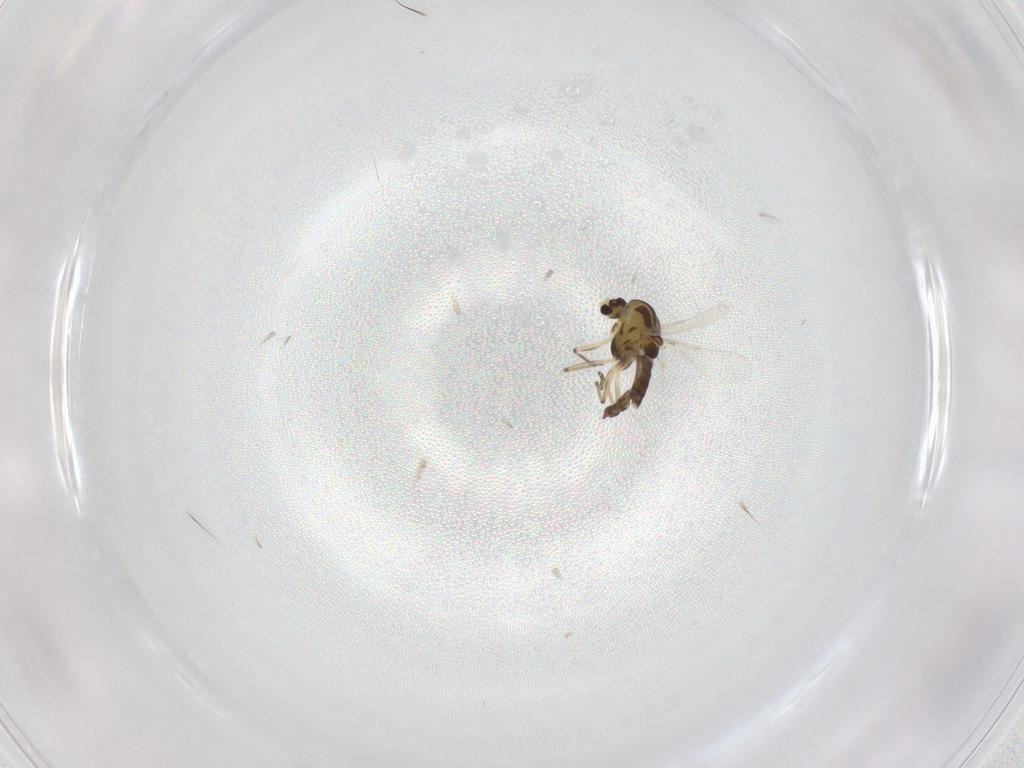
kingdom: Animalia
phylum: Arthropoda
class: Insecta
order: Diptera
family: Chironomidae
